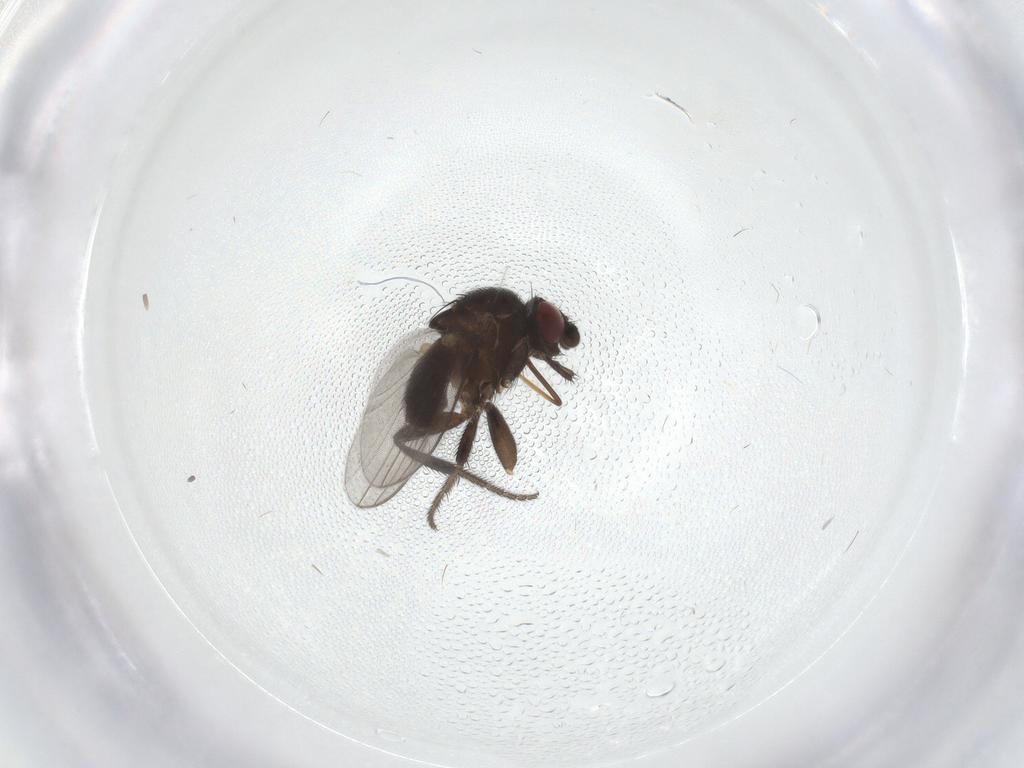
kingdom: Animalia
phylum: Arthropoda
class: Insecta
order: Diptera
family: Milichiidae
